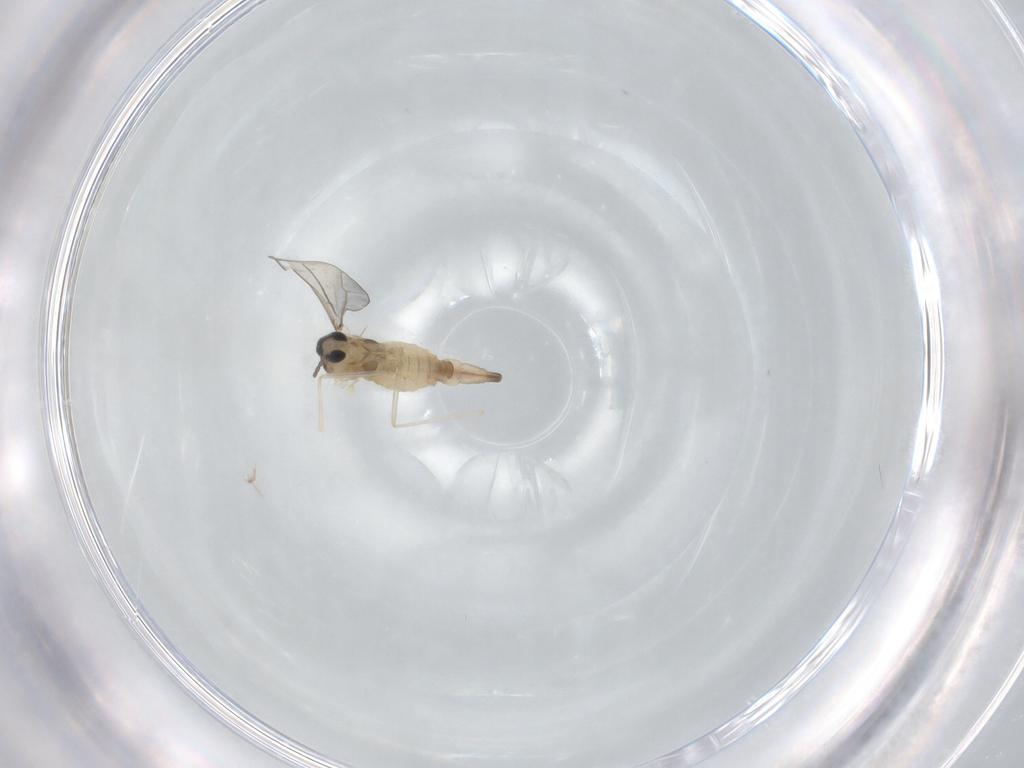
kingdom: Animalia
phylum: Arthropoda
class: Insecta
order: Diptera
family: Cecidomyiidae
